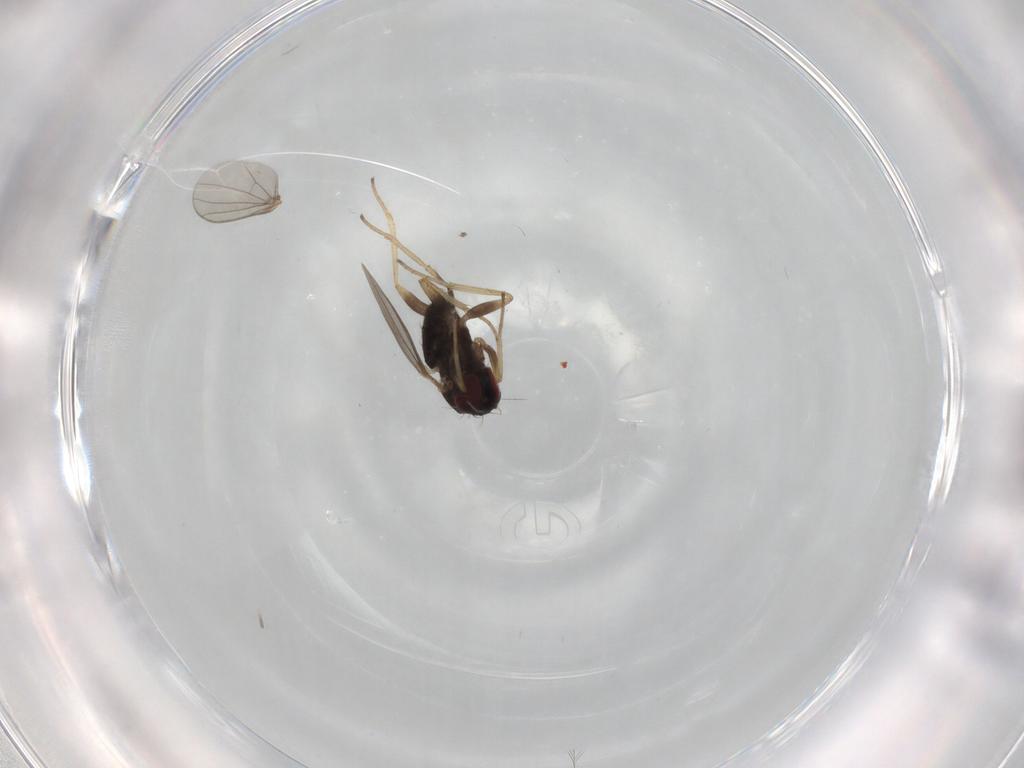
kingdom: Animalia
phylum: Arthropoda
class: Insecta
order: Diptera
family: Dolichopodidae
